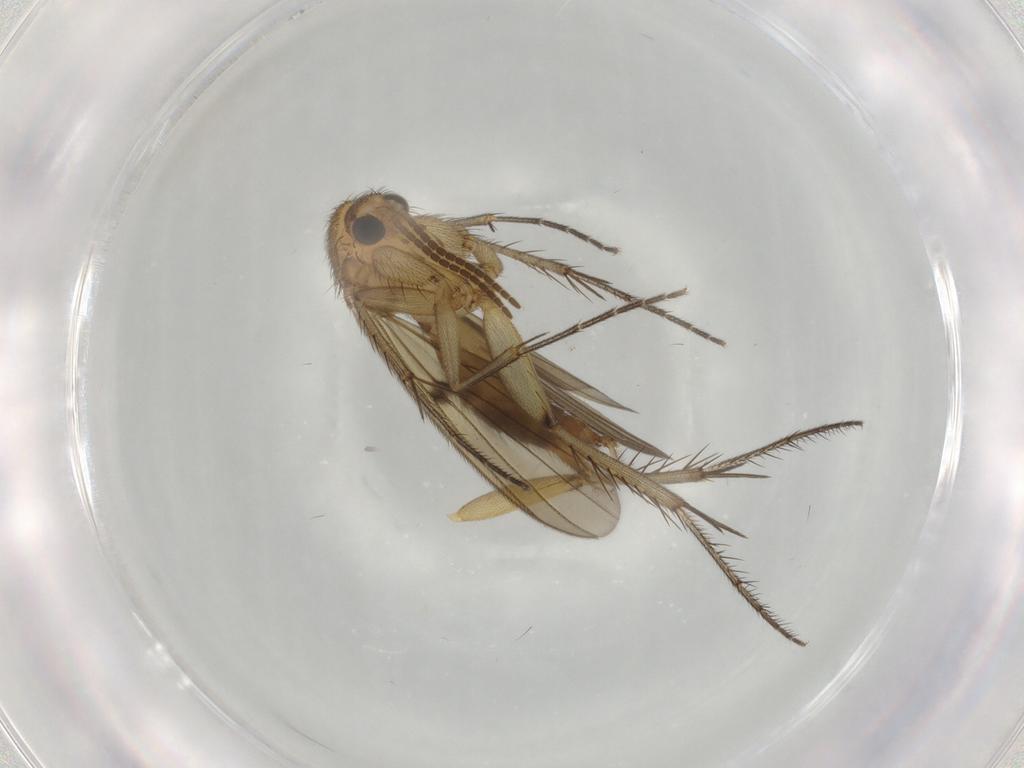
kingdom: Animalia
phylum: Arthropoda
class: Insecta
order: Diptera
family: Mycetophilidae
